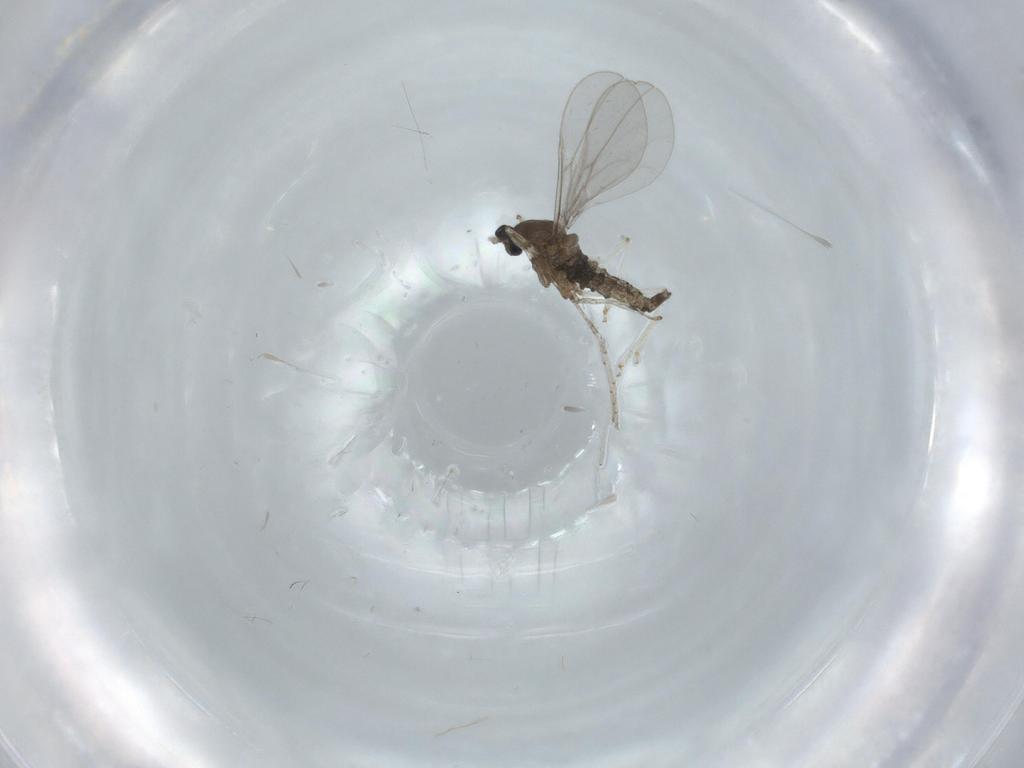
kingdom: Animalia
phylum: Arthropoda
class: Insecta
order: Diptera
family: Cecidomyiidae
